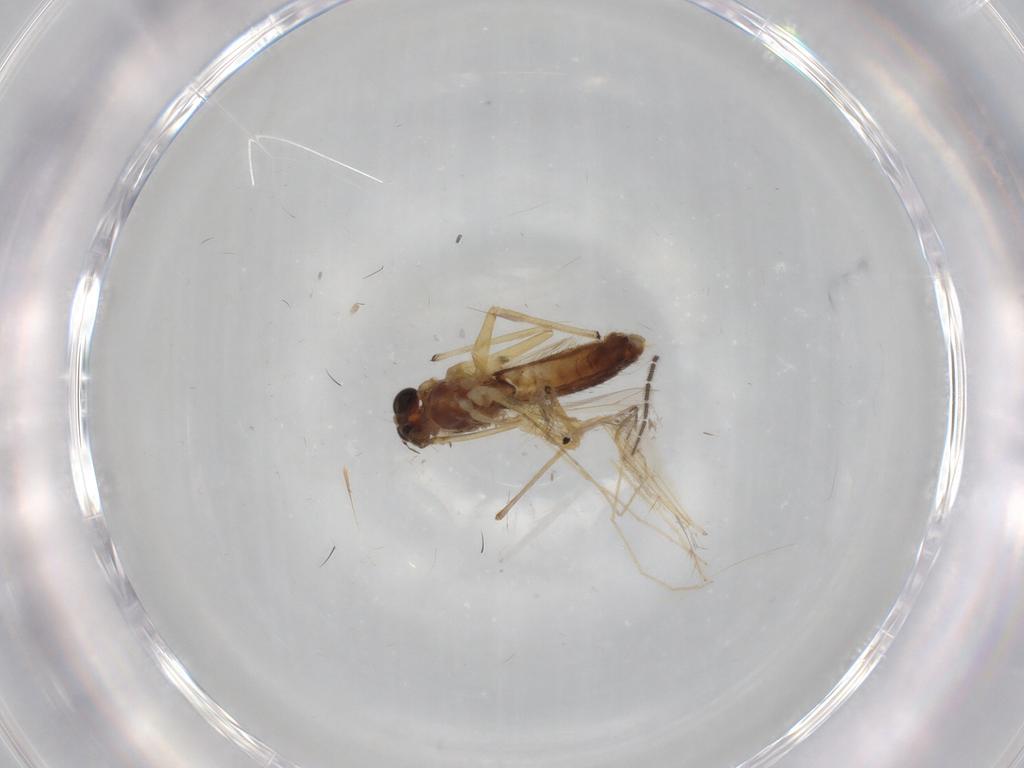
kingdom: Animalia
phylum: Arthropoda
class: Insecta
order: Diptera
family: Chironomidae
